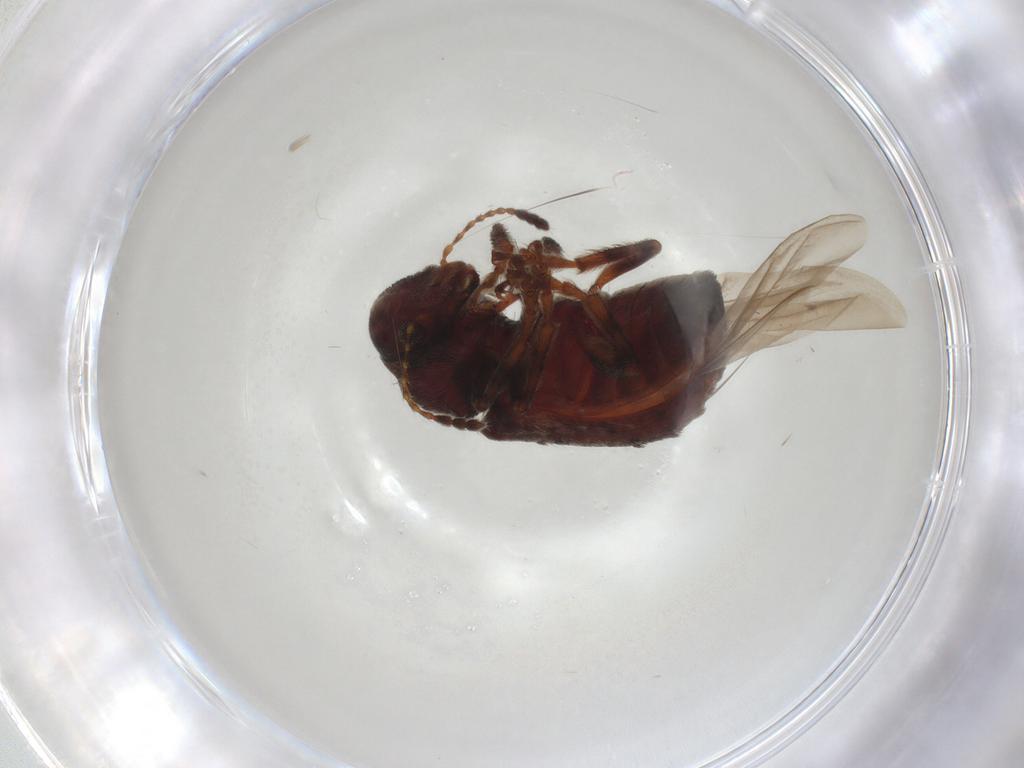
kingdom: Animalia
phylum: Arthropoda
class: Insecta
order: Coleoptera
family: Anthribidae
